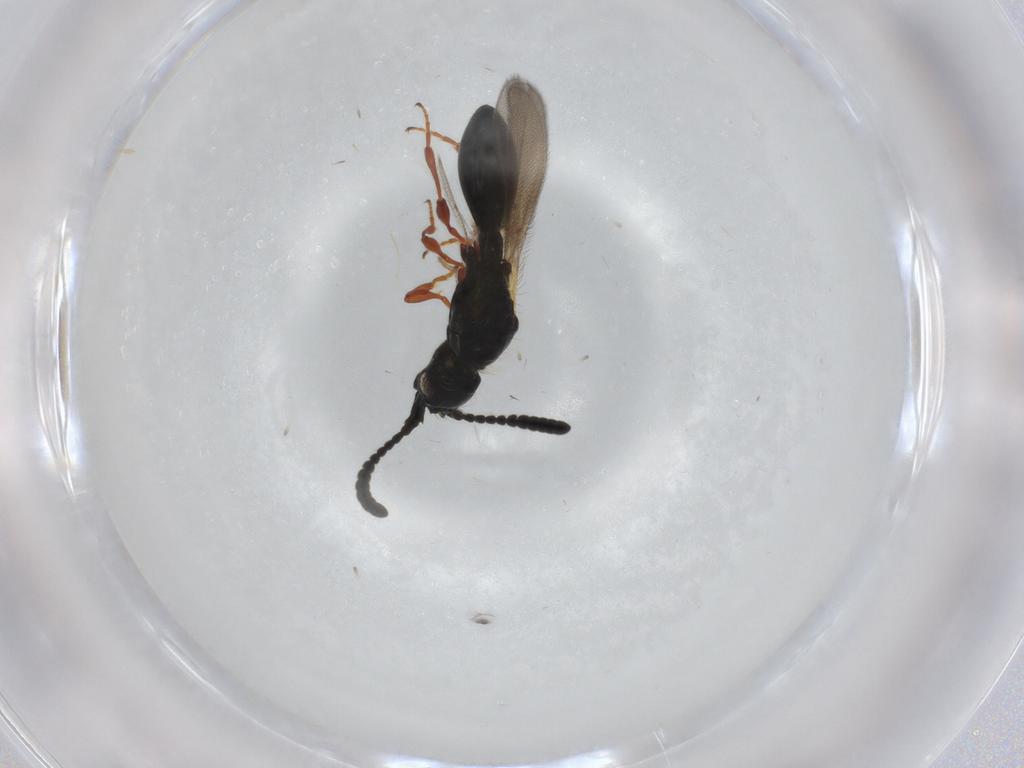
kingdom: Animalia
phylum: Arthropoda
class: Insecta
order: Hymenoptera
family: Diapriidae
